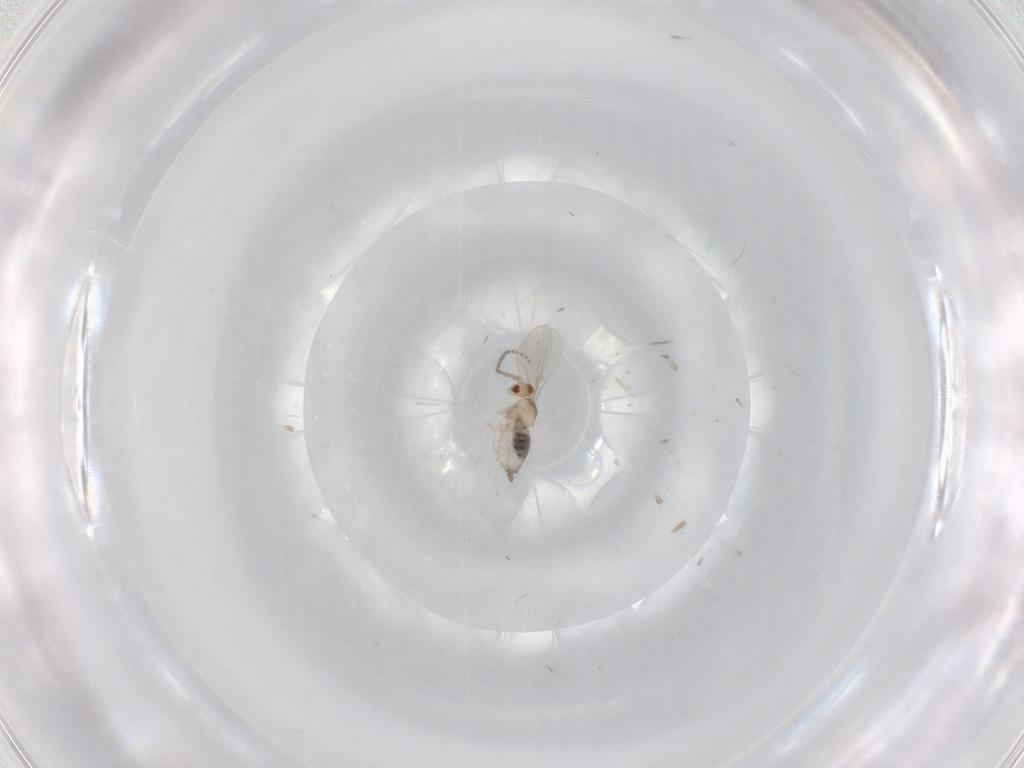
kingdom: Animalia
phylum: Arthropoda
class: Insecta
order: Diptera
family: Cecidomyiidae
